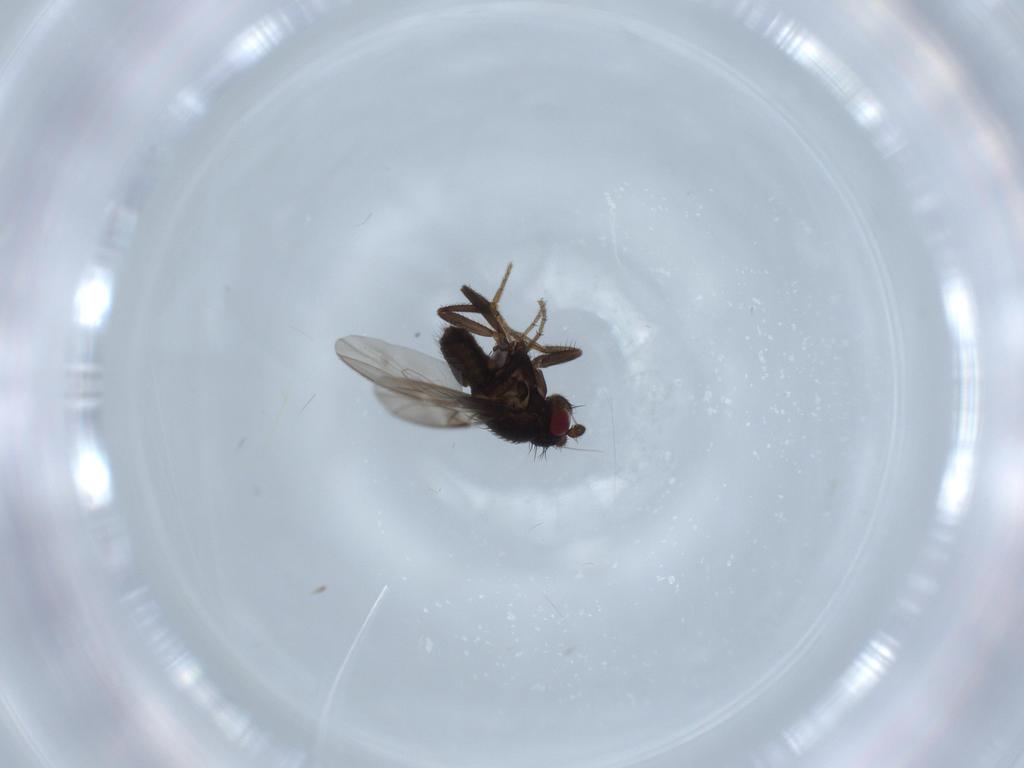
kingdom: Animalia
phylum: Arthropoda
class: Insecta
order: Diptera
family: Sphaeroceridae
